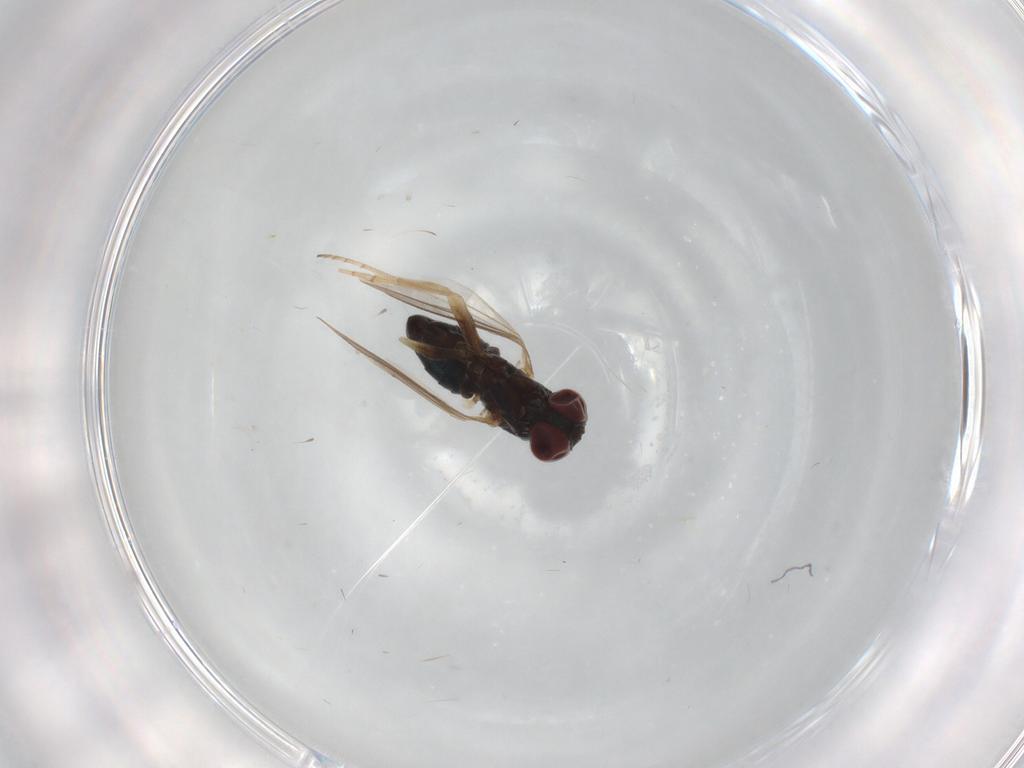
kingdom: Animalia
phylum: Arthropoda
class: Insecta
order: Diptera
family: Dolichopodidae
